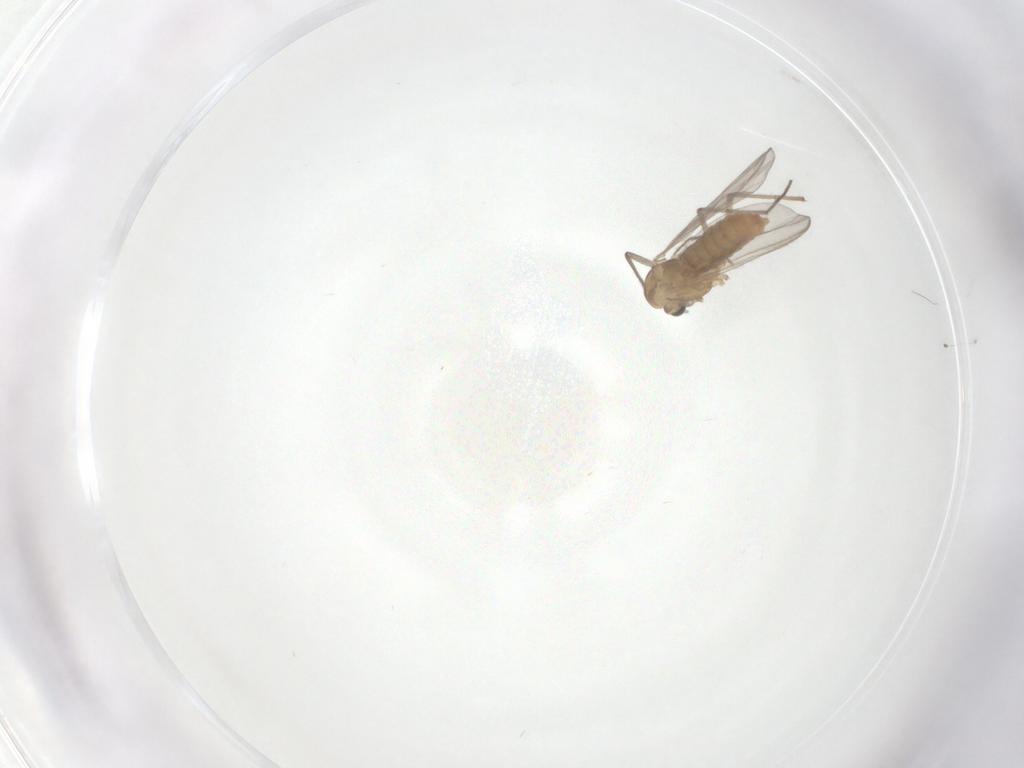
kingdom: Animalia
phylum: Arthropoda
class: Insecta
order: Diptera
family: Chironomidae
